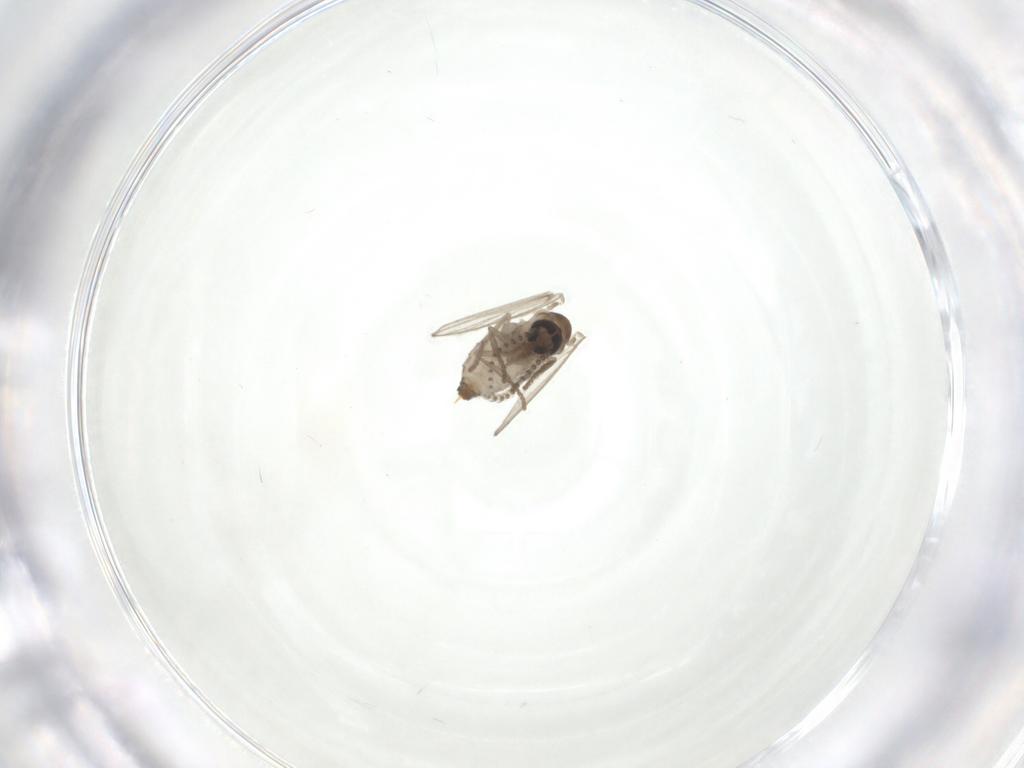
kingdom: Animalia
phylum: Arthropoda
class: Insecta
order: Diptera
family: Psychodidae
